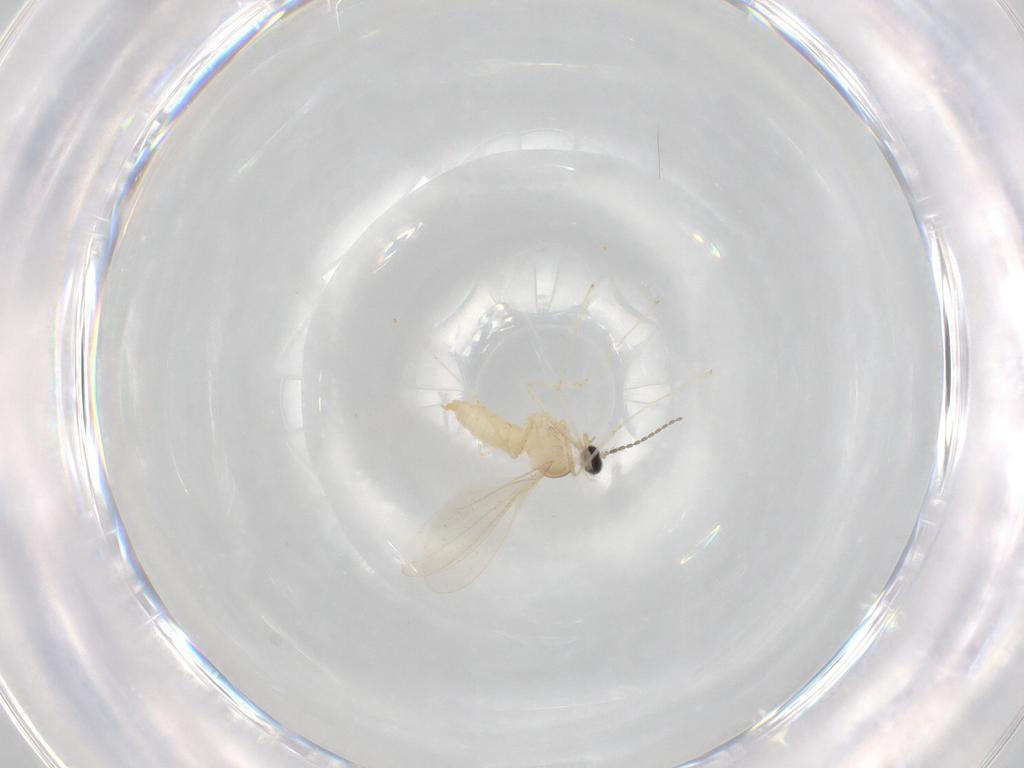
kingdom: Animalia
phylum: Arthropoda
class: Insecta
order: Diptera
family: Cecidomyiidae
